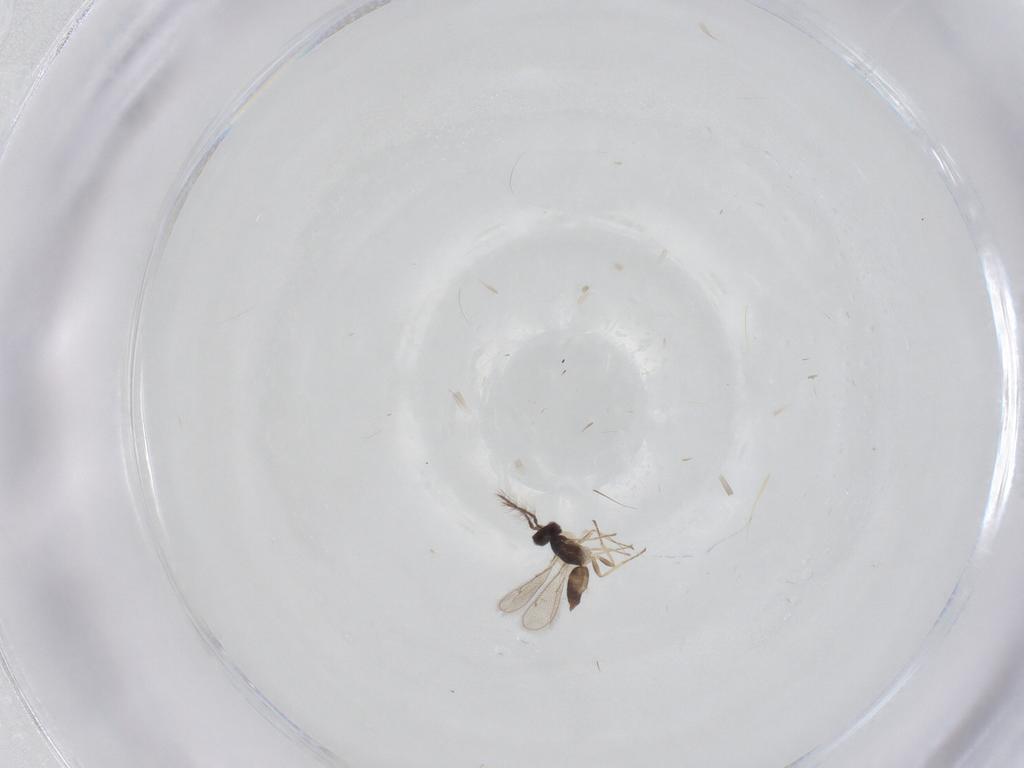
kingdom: Animalia
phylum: Arthropoda
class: Insecta
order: Hymenoptera
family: Eulophidae
